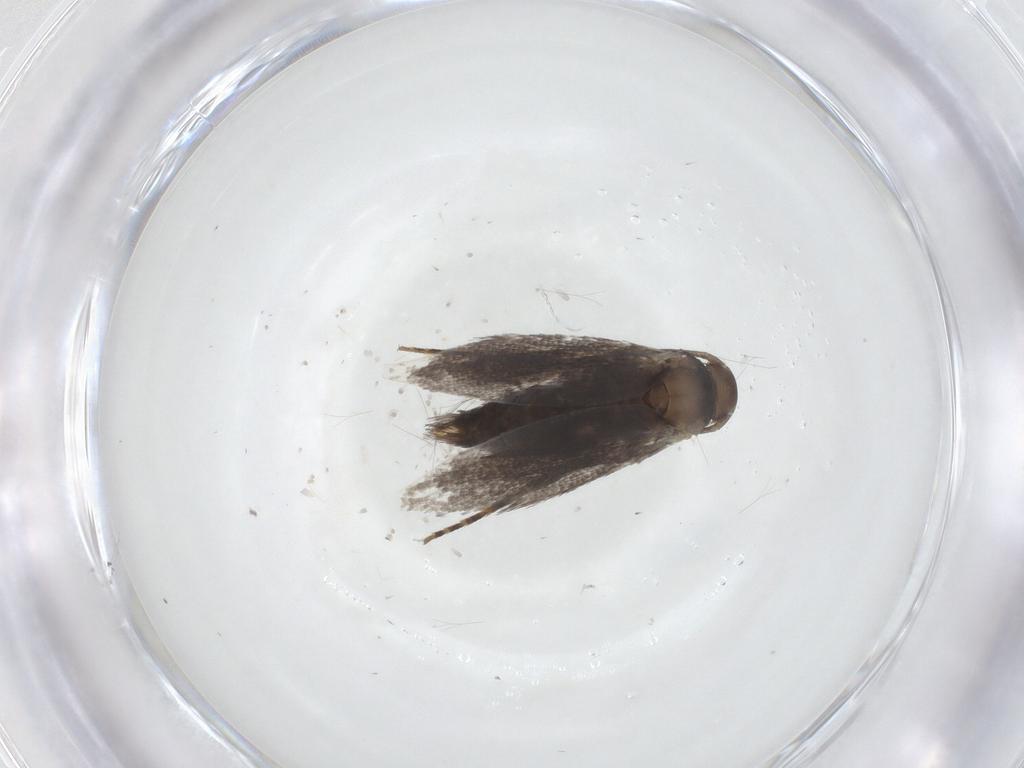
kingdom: Animalia
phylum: Arthropoda
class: Insecta
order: Lepidoptera
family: Elachistidae
